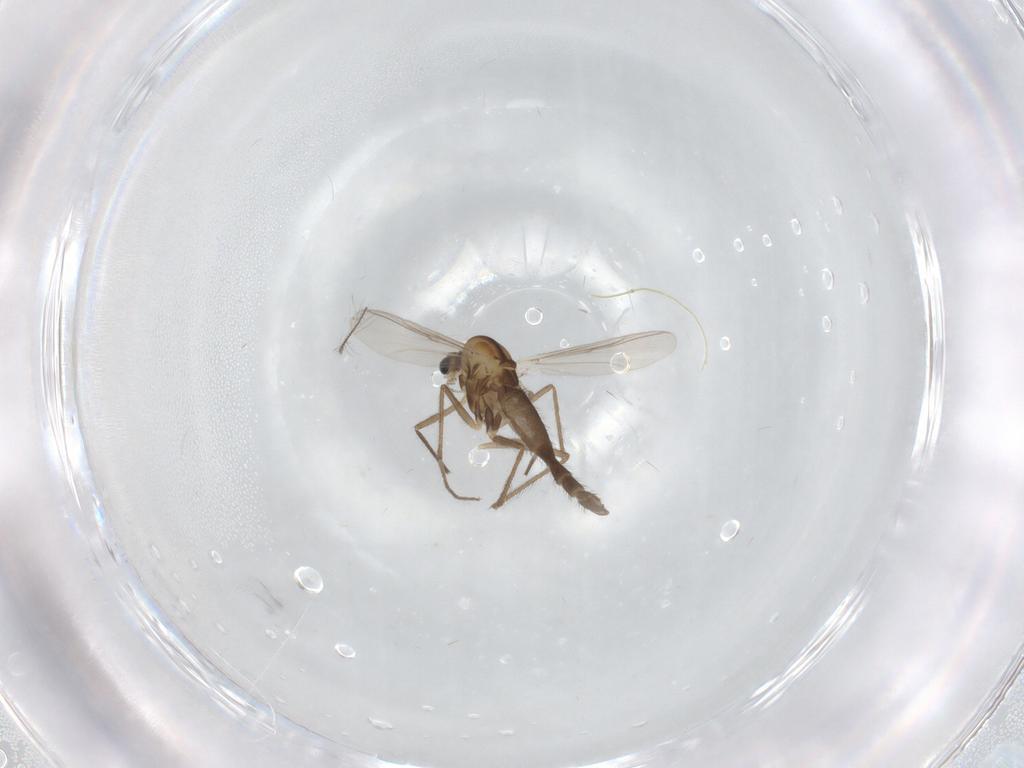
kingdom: Animalia
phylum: Arthropoda
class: Insecta
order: Diptera
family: Chironomidae
